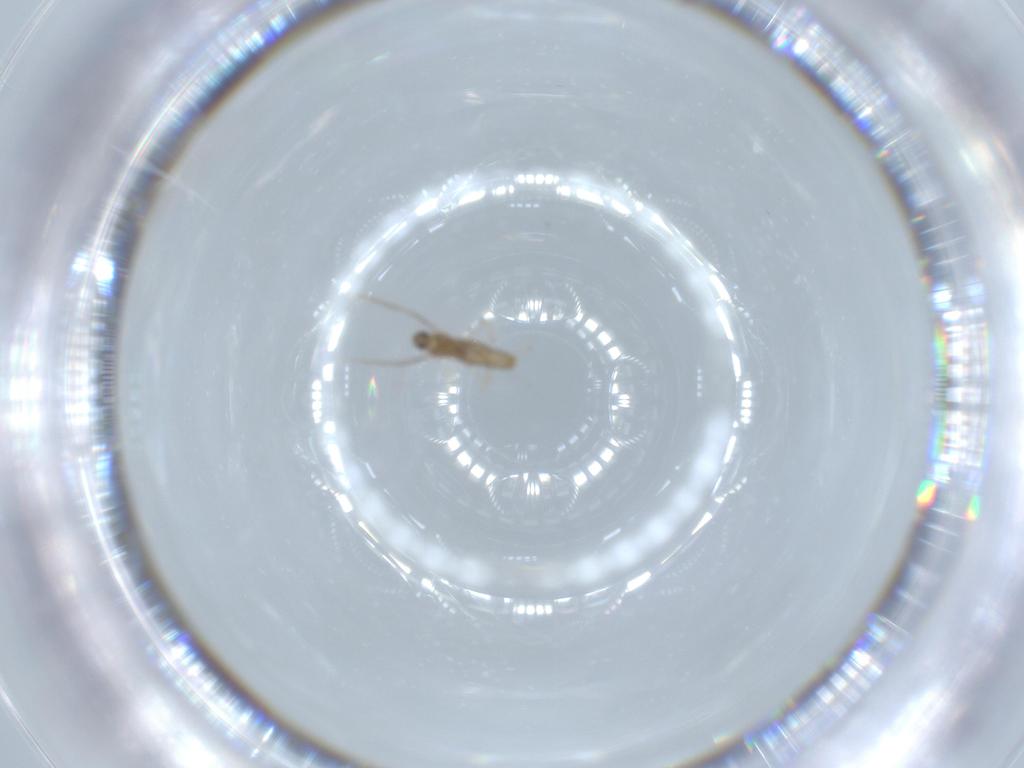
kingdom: Animalia
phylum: Arthropoda
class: Insecta
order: Diptera
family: Cecidomyiidae
